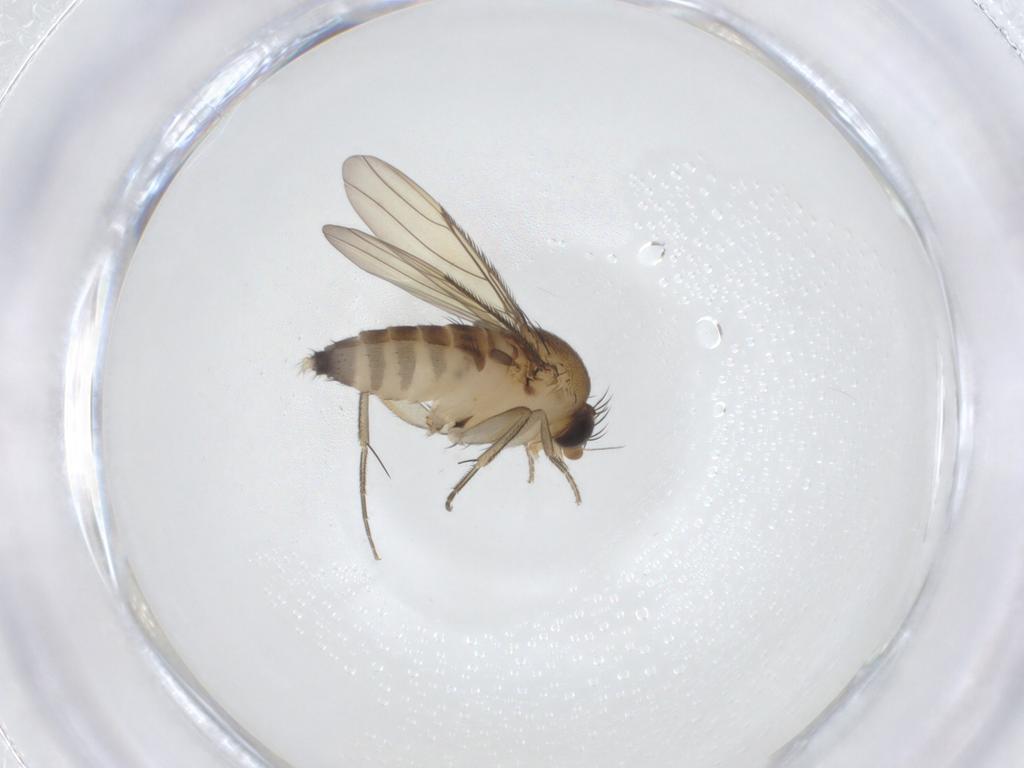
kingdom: Animalia
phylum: Arthropoda
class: Insecta
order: Diptera
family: Phoridae
